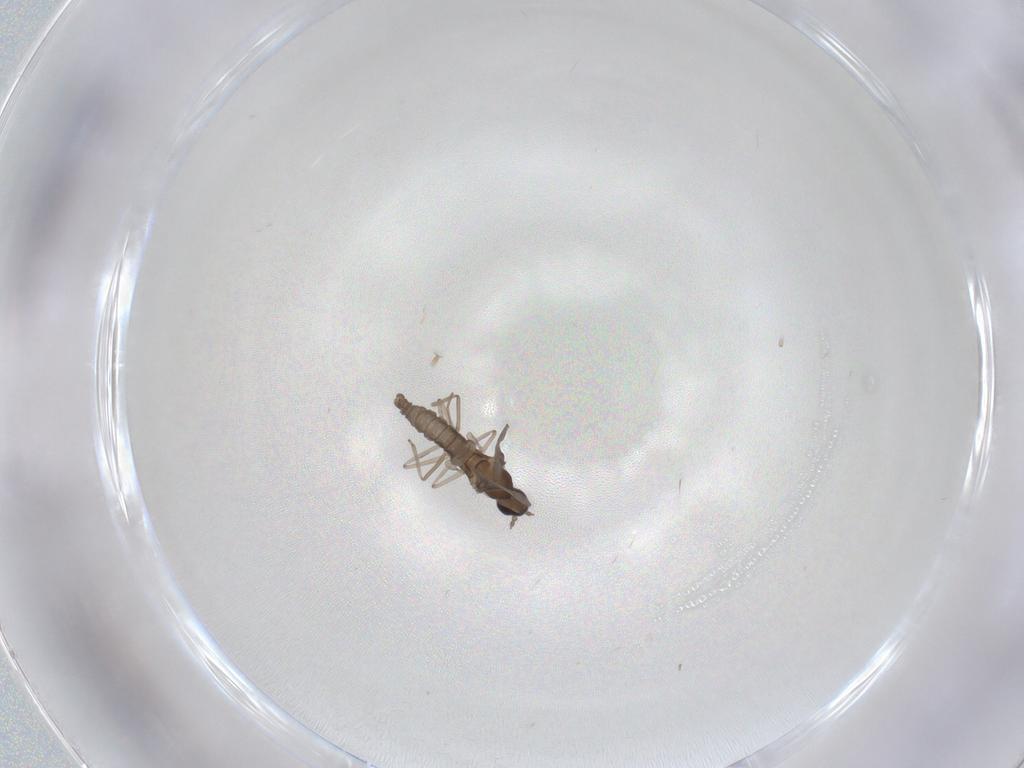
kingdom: Animalia
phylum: Arthropoda
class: Insecta
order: Diptera
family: Cecidomyiidae
